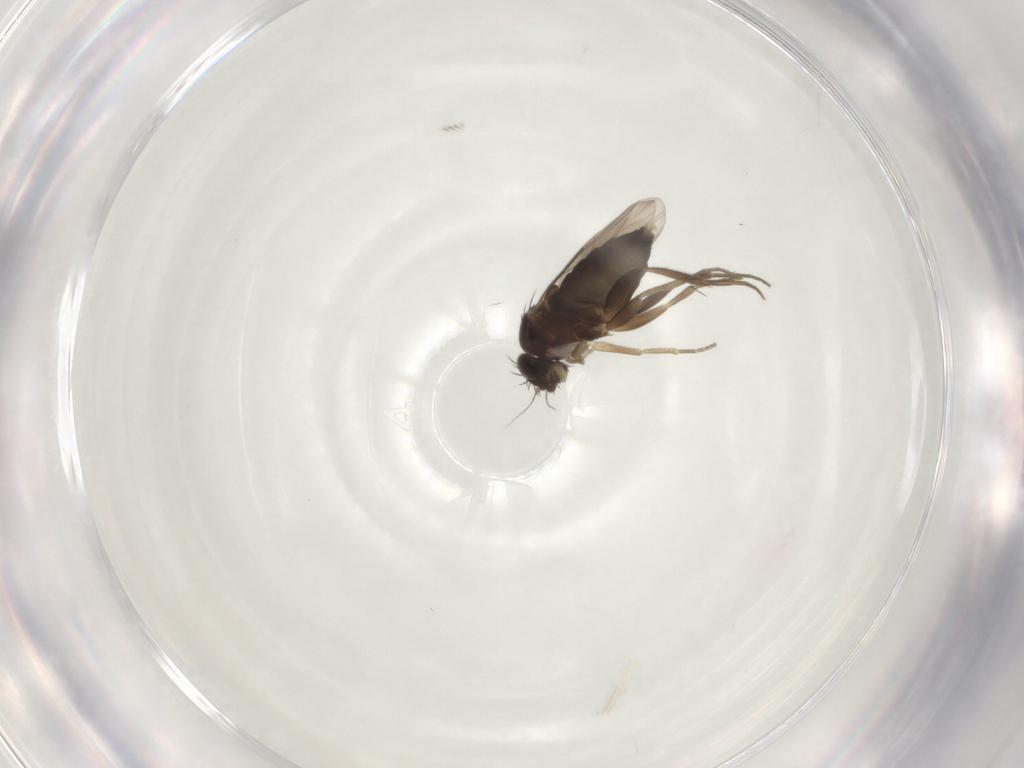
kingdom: Animalia
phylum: Arthropoda
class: Insecta
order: Diptera
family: Phoridae
